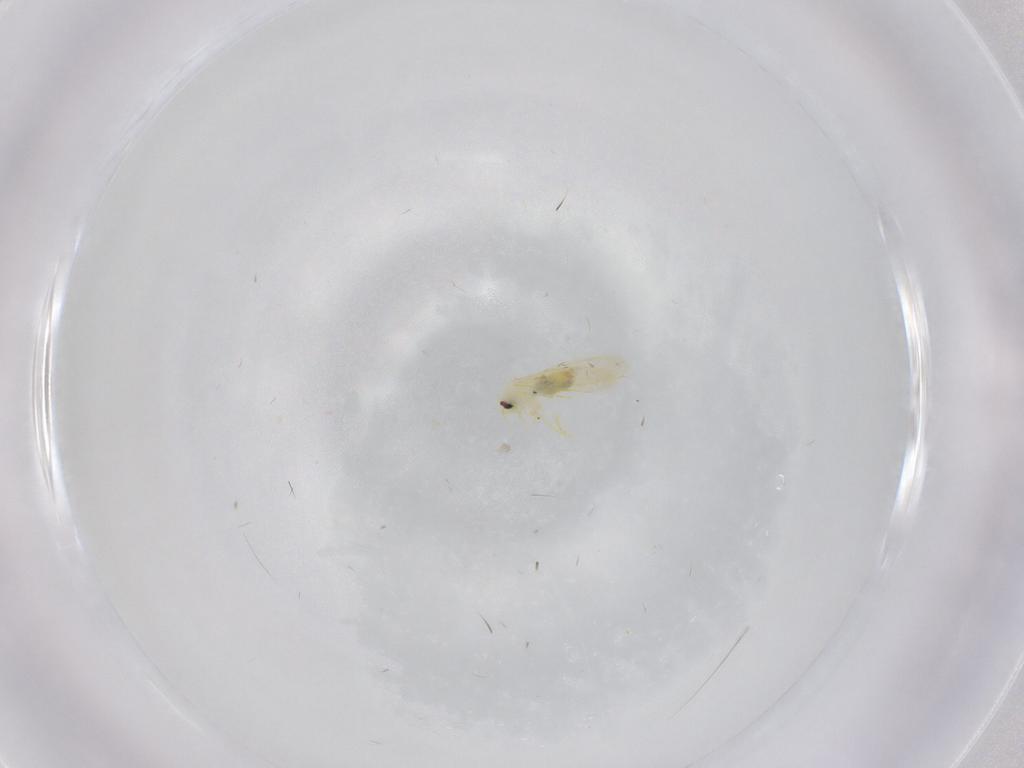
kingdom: Animalia
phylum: Arthropoda
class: Insecta
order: Hemiptera
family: Aleyrodidae
